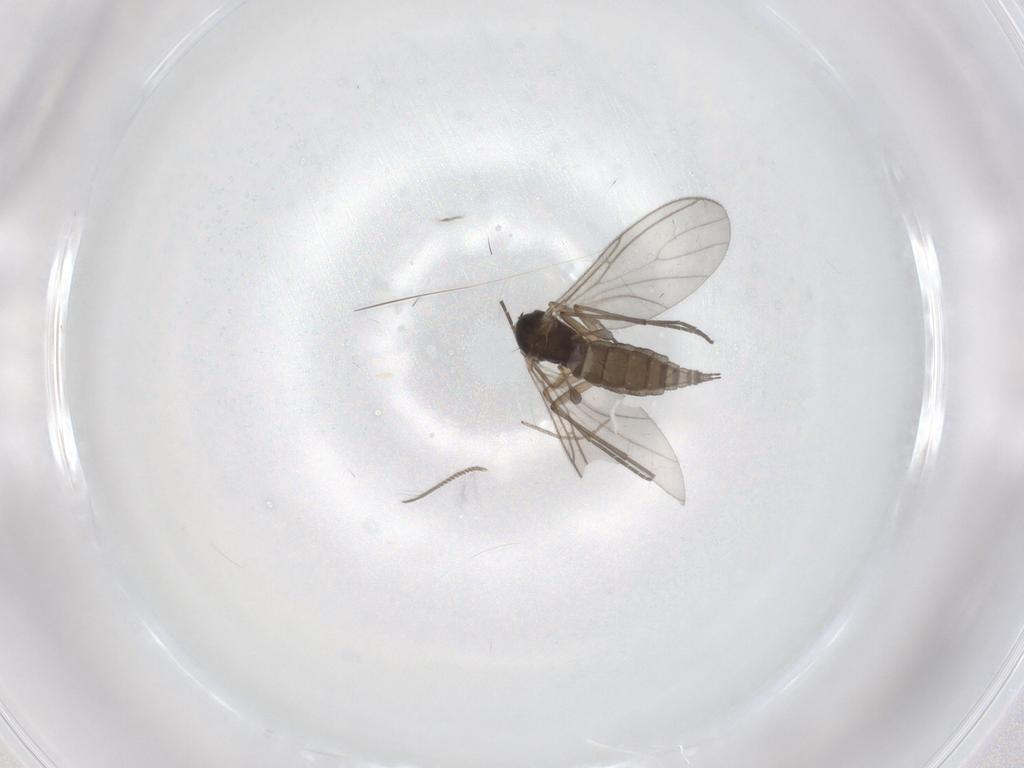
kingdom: Animalia
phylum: Arthropoda
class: Insecta
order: Diptera
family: Sciaridae
